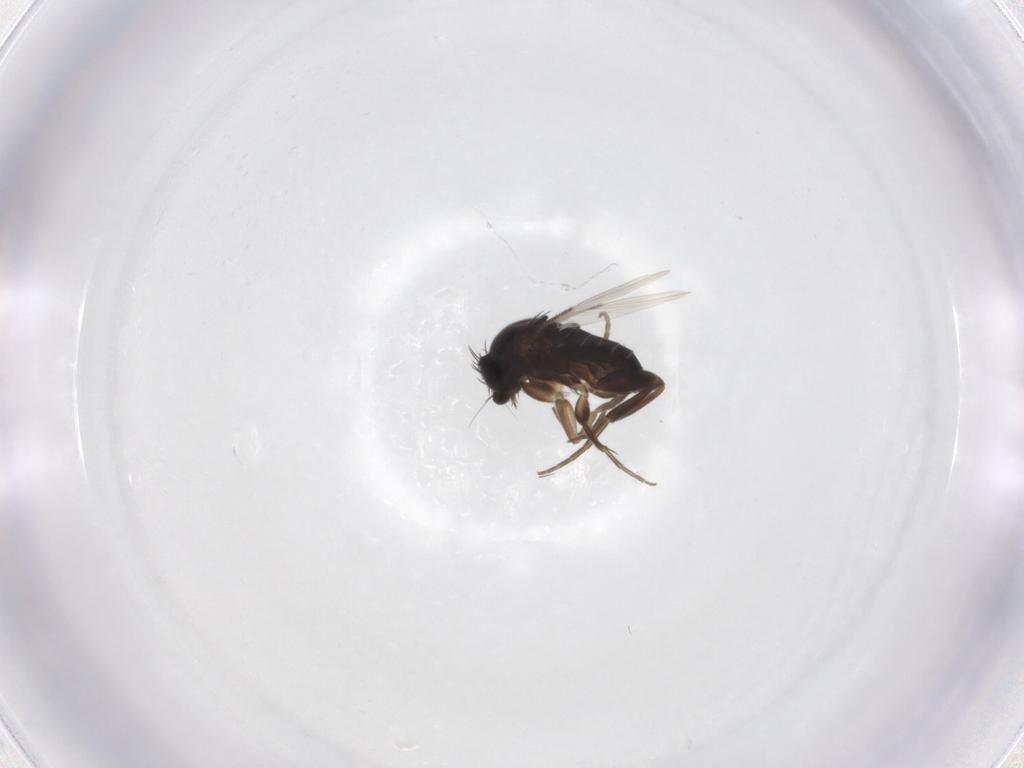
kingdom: Animalia
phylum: Arthropoda
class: Insecta
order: Diptera
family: Phoridae
